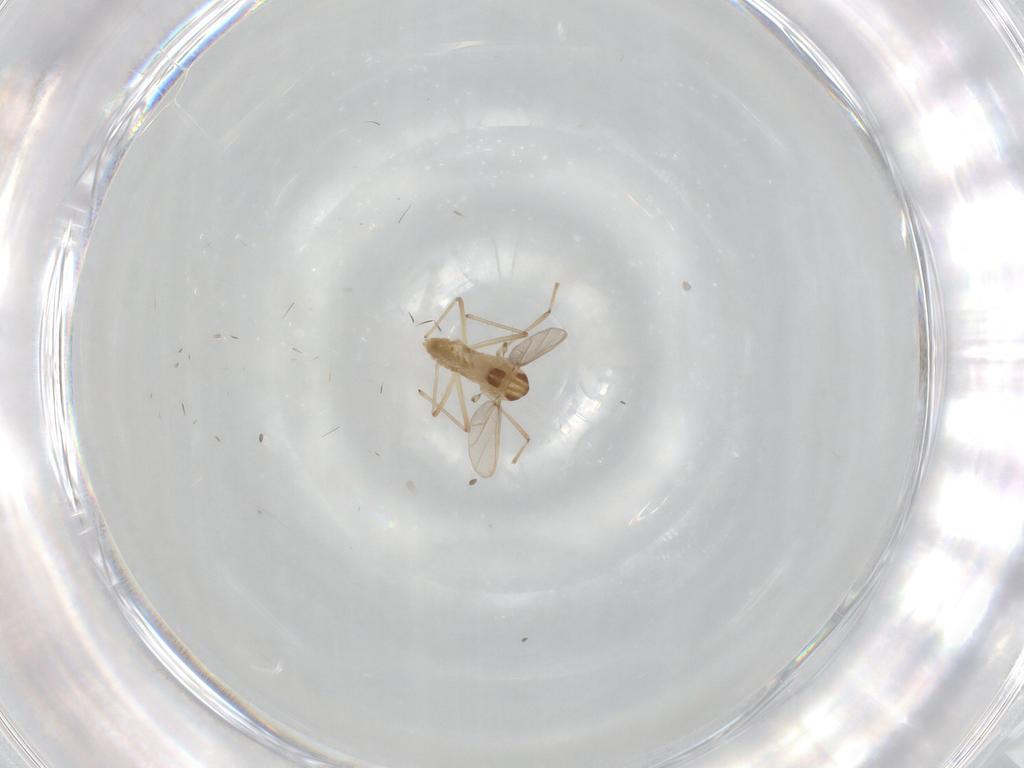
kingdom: Animalia
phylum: Arthropoda
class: Insecta
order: Diptera
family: Chironomidae
